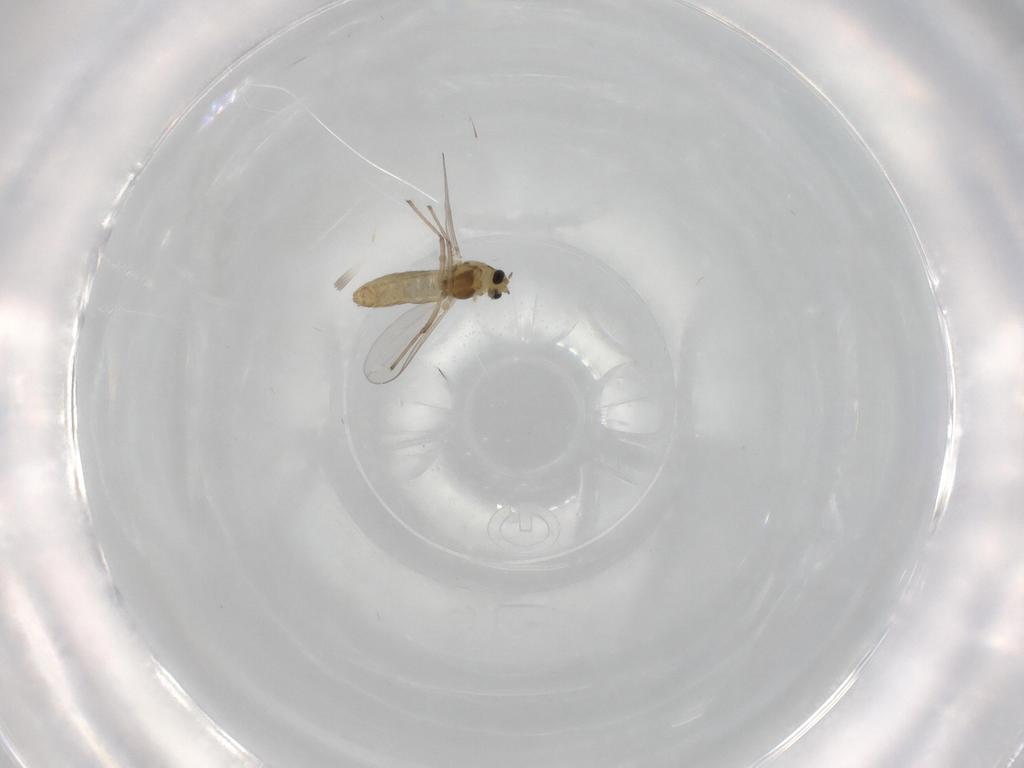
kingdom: Animalia
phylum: Arthropoda
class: Insecta
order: Diptera
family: Chironomidae
